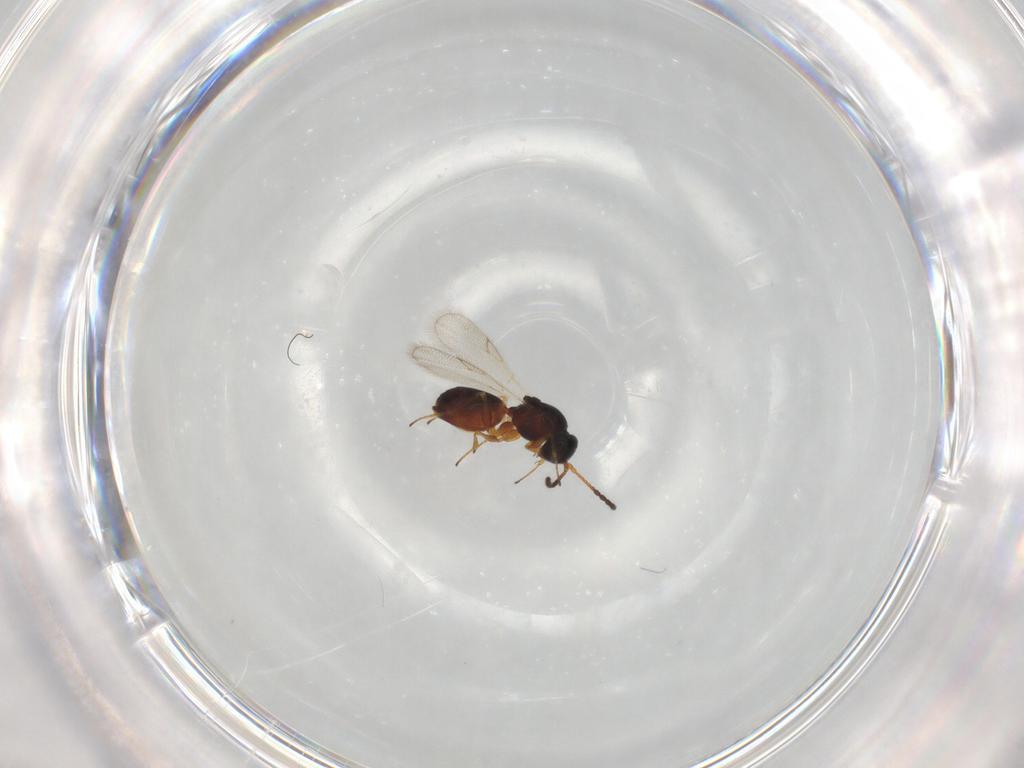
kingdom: Animalia
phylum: Arthropoda
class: Insecta
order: Hymenoptera
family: Figitidae
